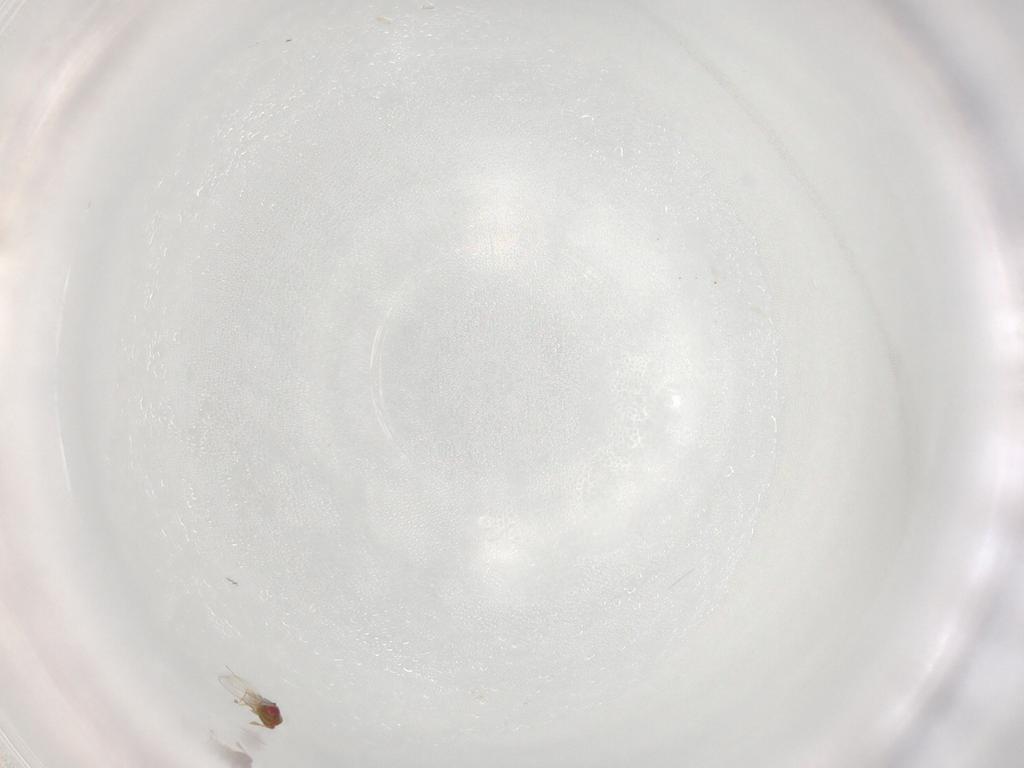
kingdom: Animalia
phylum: Arthropoda
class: Insecta
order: Hymenoptera
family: Trichogrammatidae
